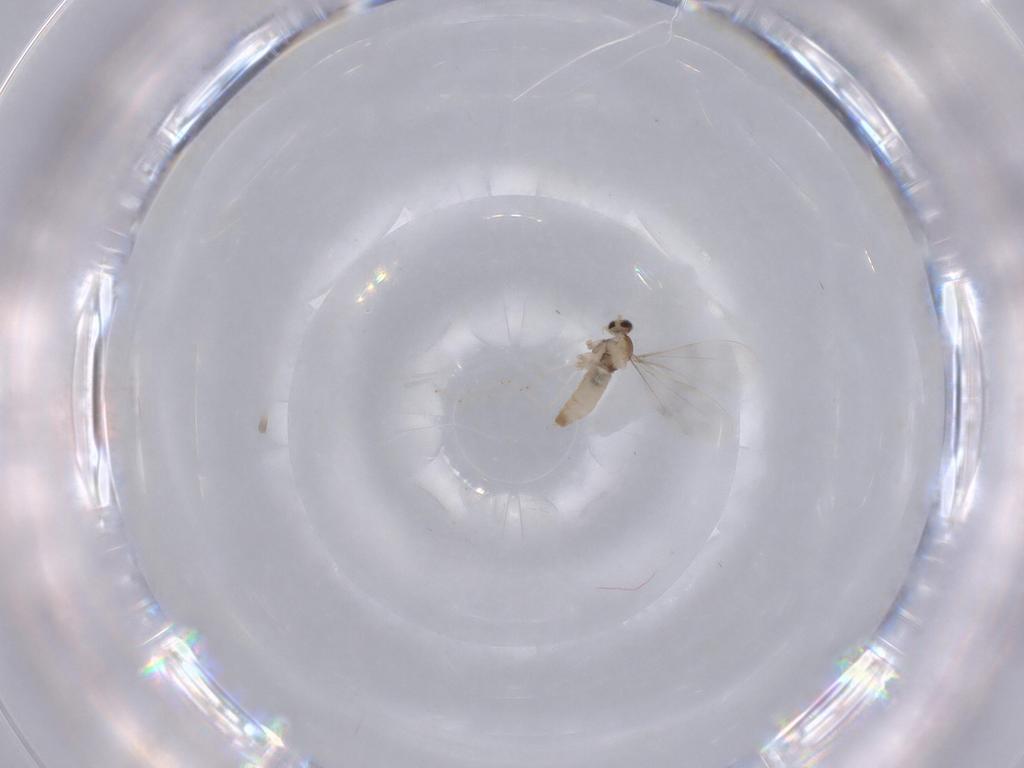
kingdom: Animalia
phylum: Arthropoda
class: Insecta
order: Diptera
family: Cecidomyiidae
